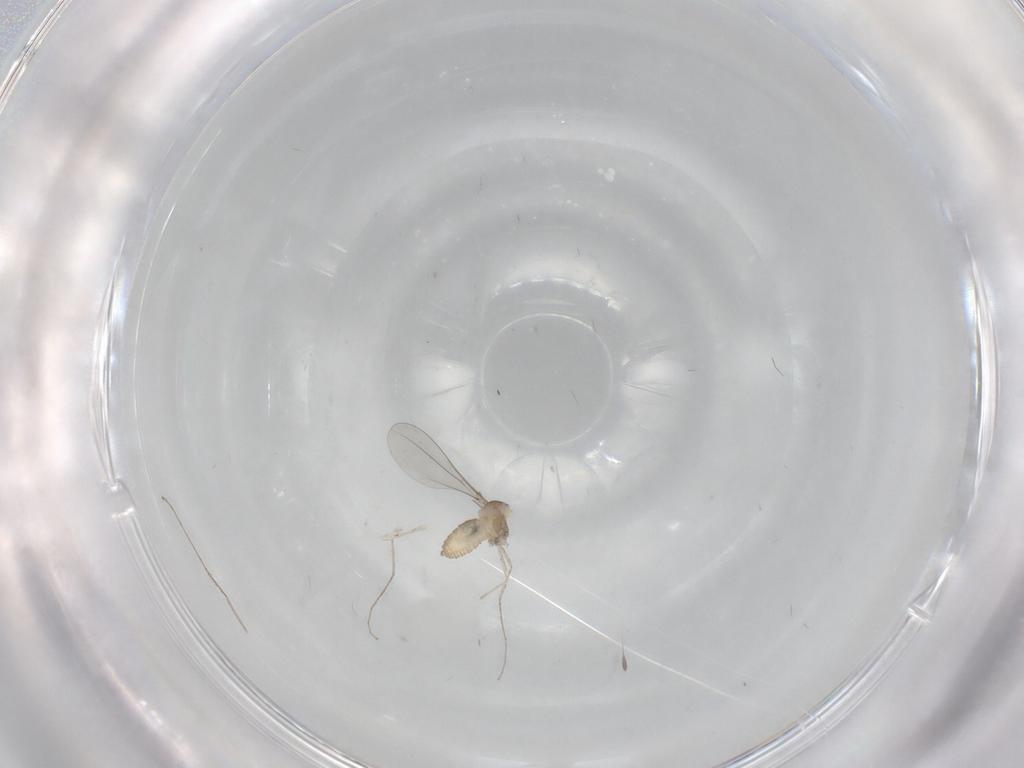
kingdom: Animalia
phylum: Arthropoda
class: Insecta
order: Diptera
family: Cecidomyiidae
